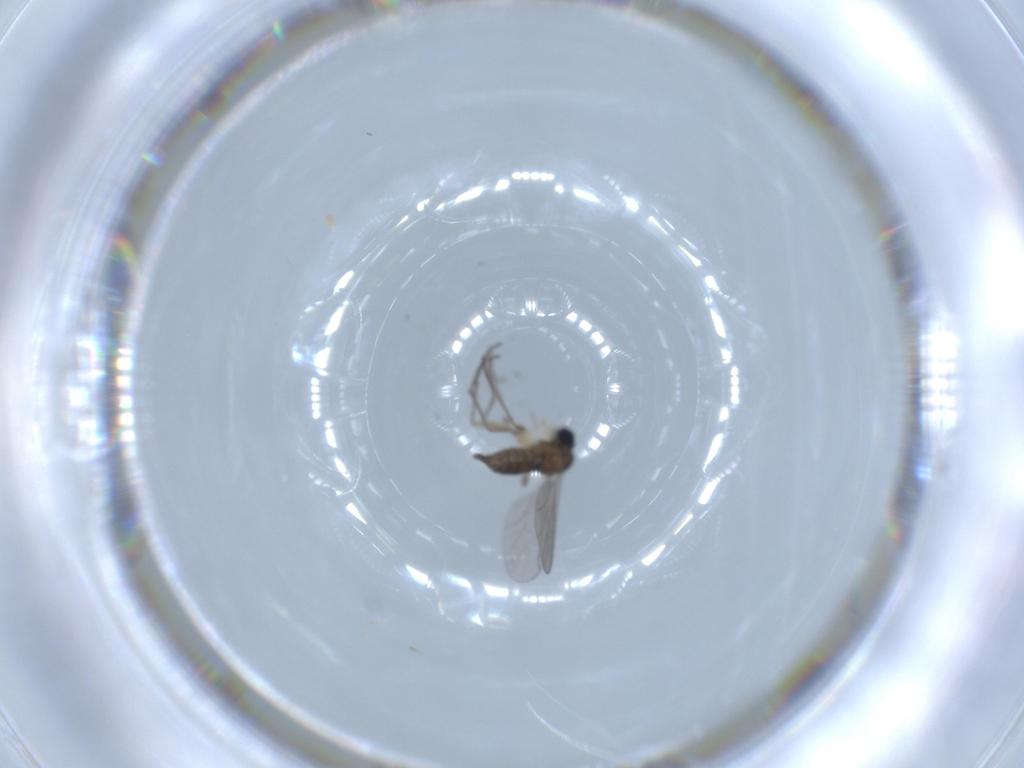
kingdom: Animalia
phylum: Arthropoda
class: Insecta
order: Diptera
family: Sciaridae
